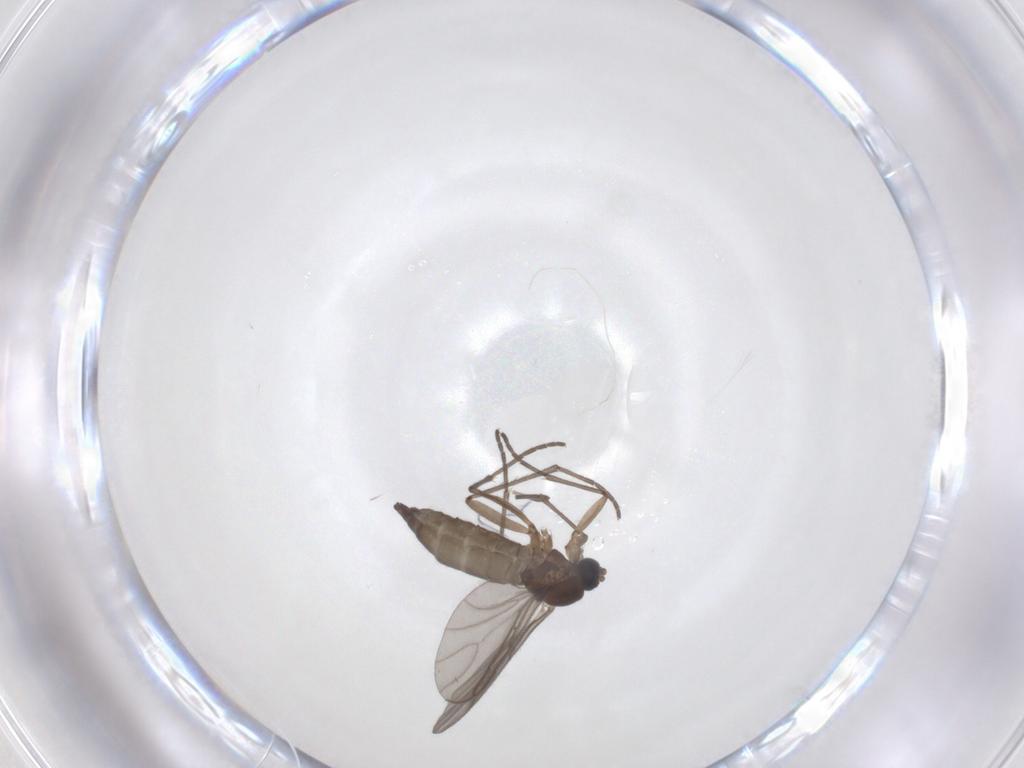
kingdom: Animalia
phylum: Arthropoda
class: Insecta
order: Diptera
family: Sciaridae
